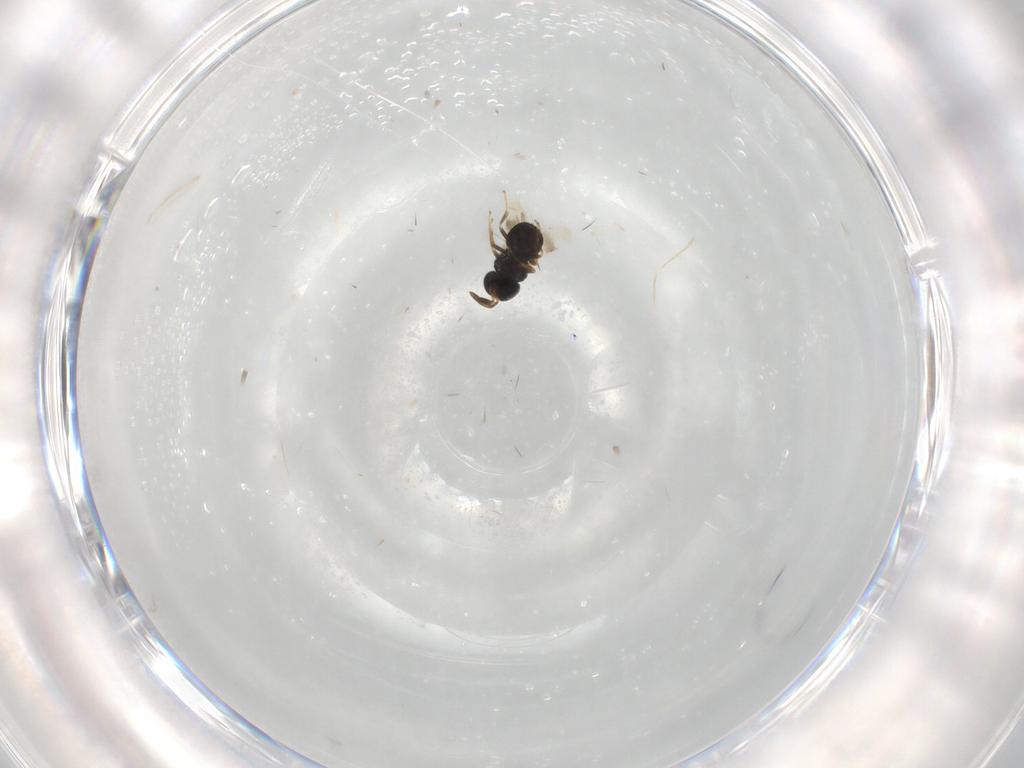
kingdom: Animalia
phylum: Arthropoda
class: Insecta
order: Hymenoptera
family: Scelionidae
